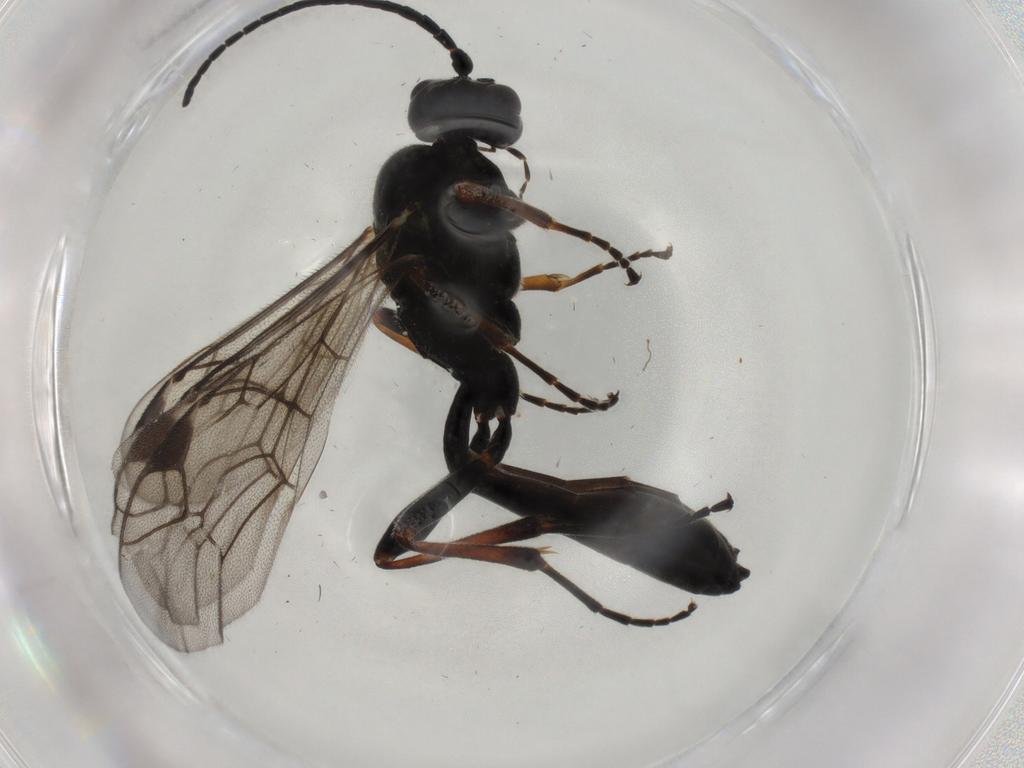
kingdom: Animalia
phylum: Arthropoda
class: Insecta
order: Hymenoptera
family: Ichneumonidae
